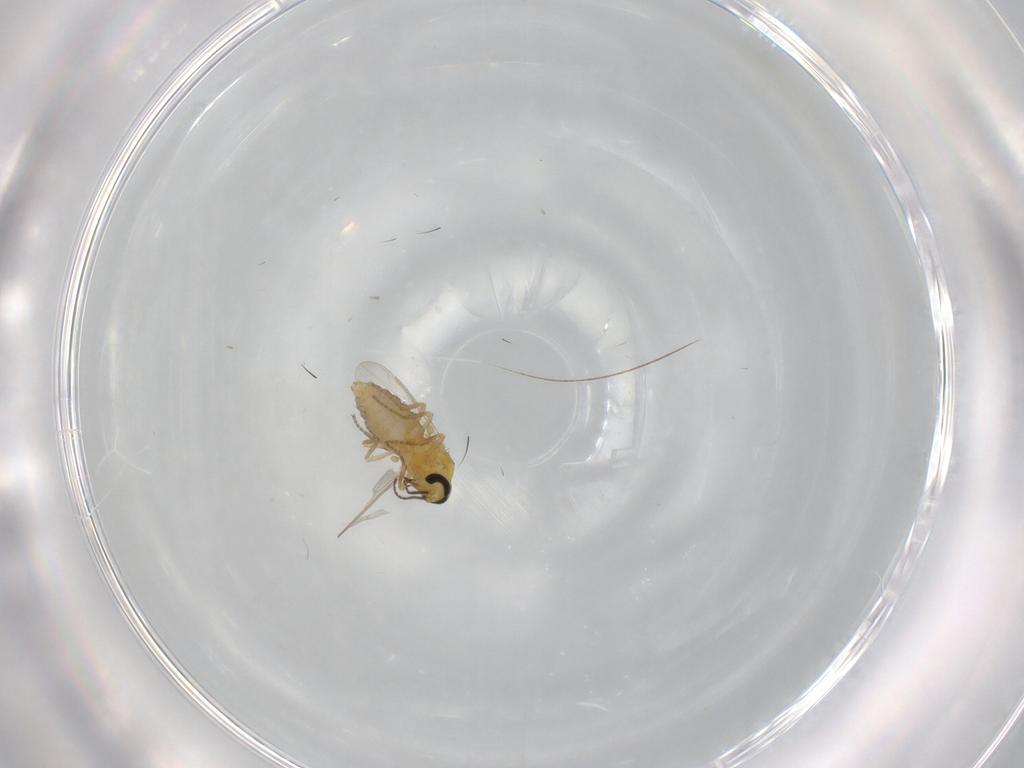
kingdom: Animalia
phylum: Arthropoda
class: Insecta
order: Diptera
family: Ceratopogonidae
